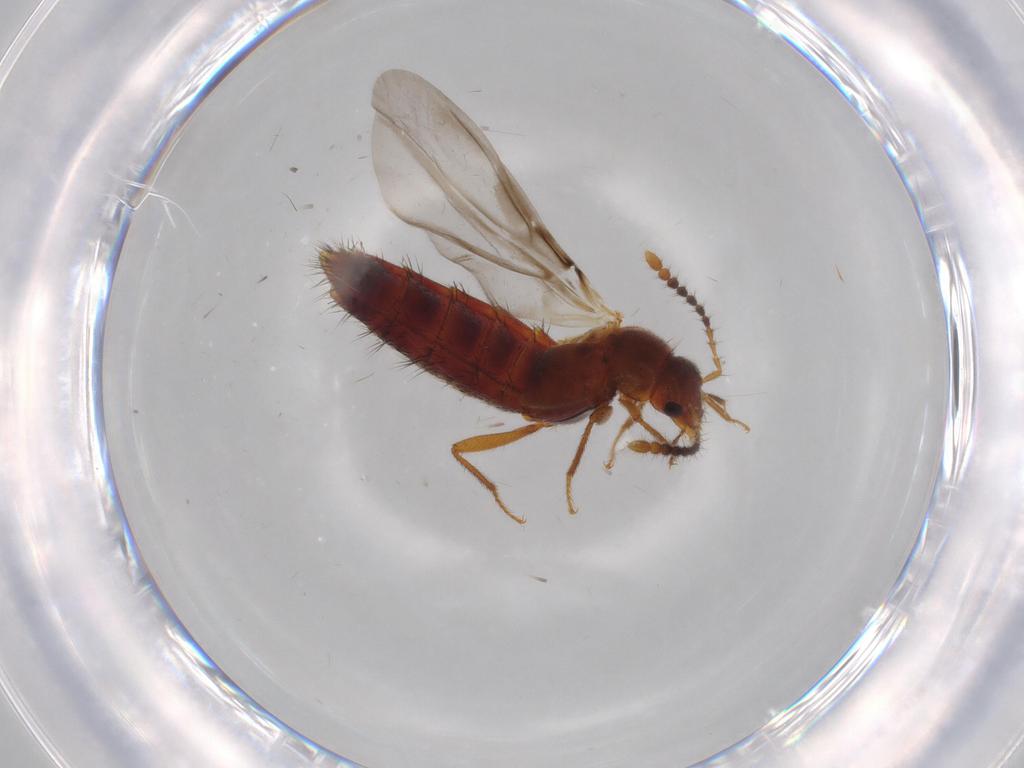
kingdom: Animalia
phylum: Arthropoda
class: Insecta
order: Coleoptera
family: Staphylinidae
